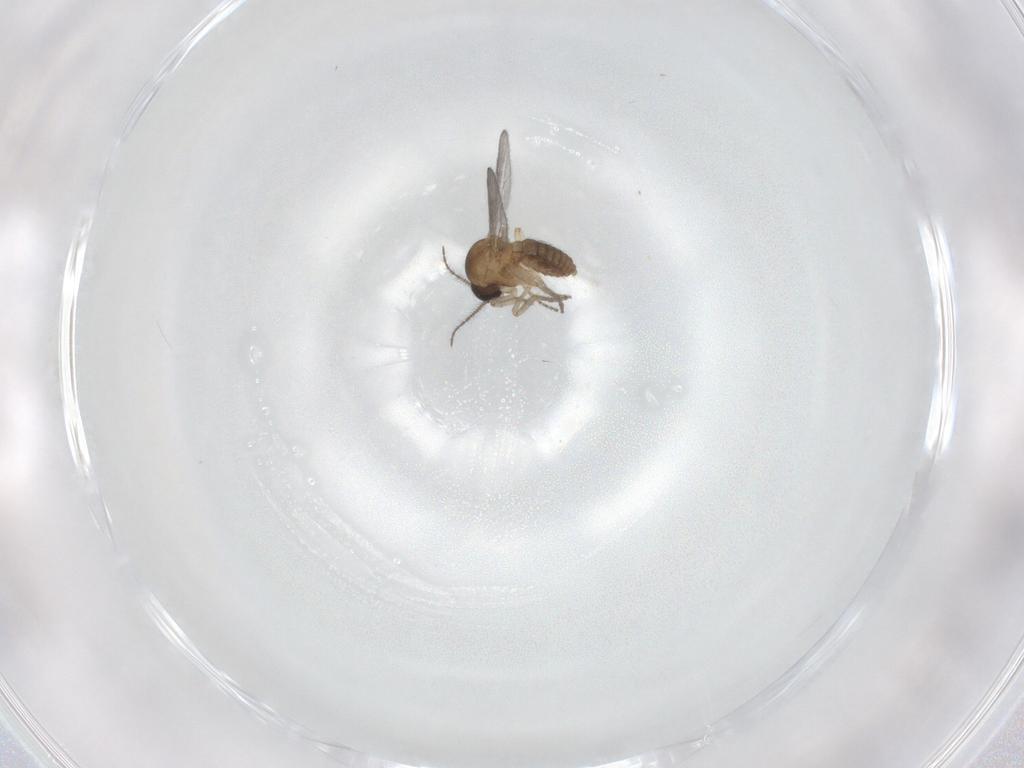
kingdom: Animalia
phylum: Arthropoda
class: Insecta
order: Diptera
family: Chironomidae
